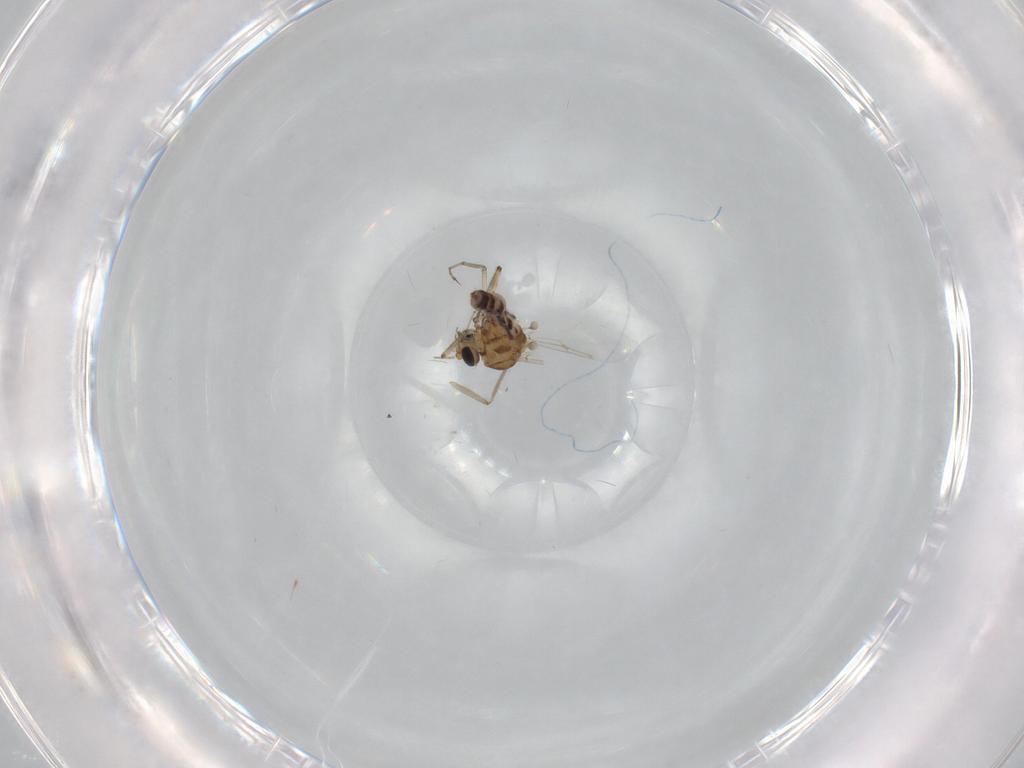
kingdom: Animalia
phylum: Arthropoda
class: Insecta
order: Diptera
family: Ceratopogonidae
